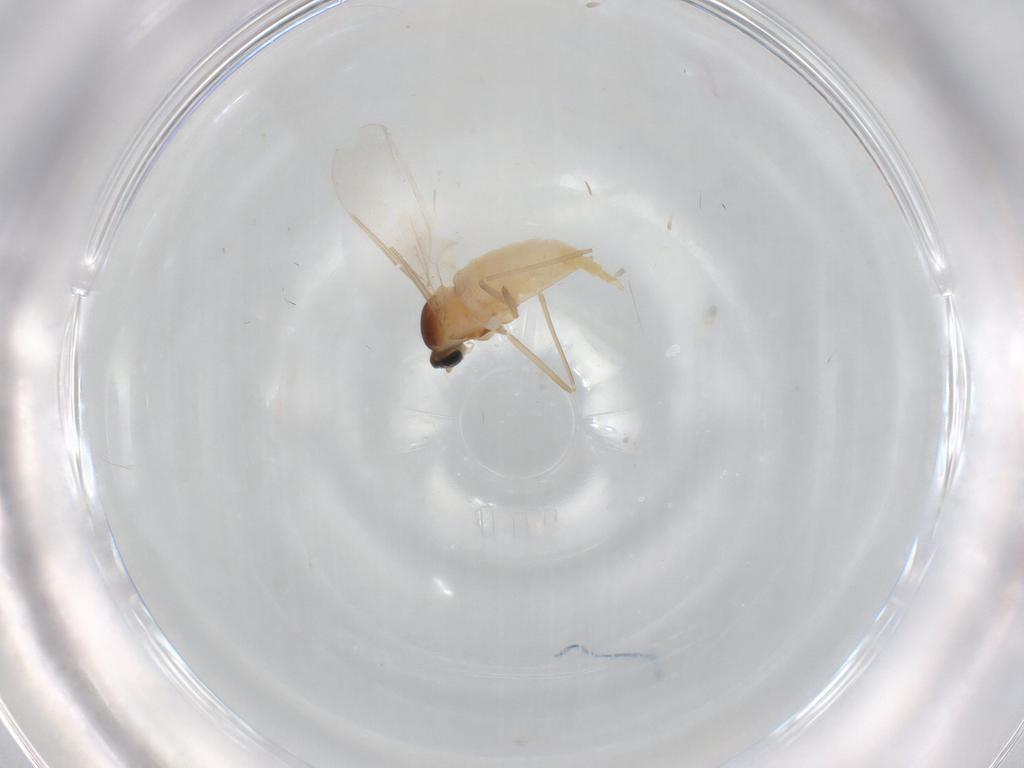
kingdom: Animalia
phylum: Arthropoda
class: Insecta
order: Diptera
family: Cecidomyiidae
